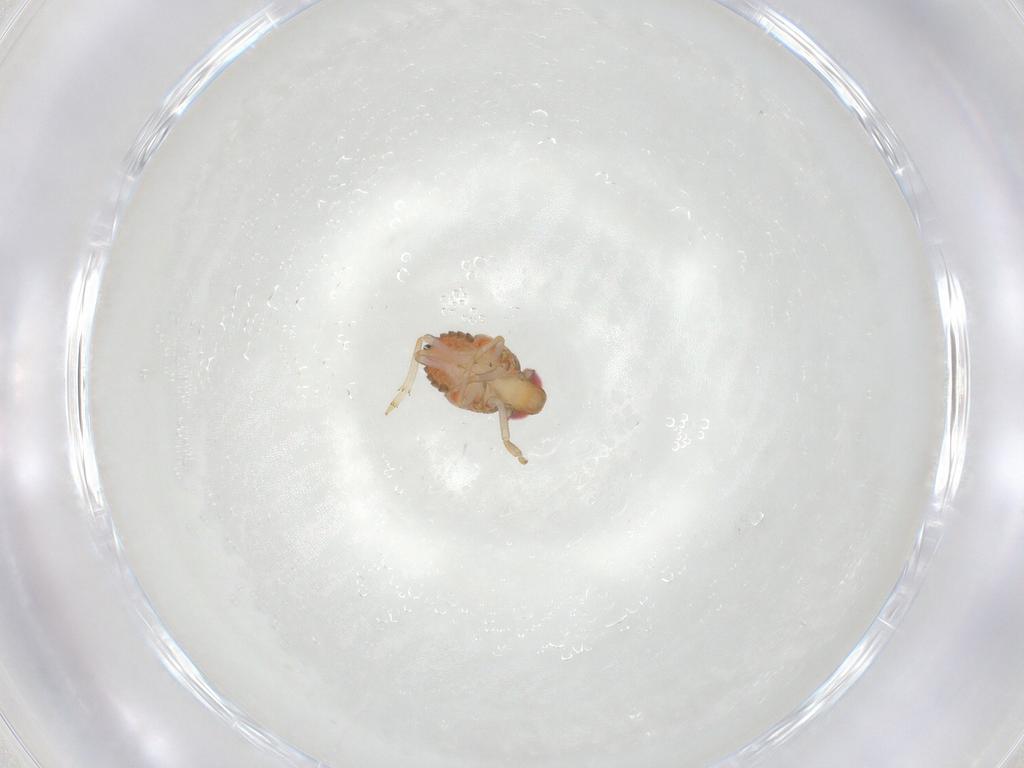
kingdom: Animalia
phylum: Arthropoda
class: Insecta
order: Hemiptera
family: Issidae
